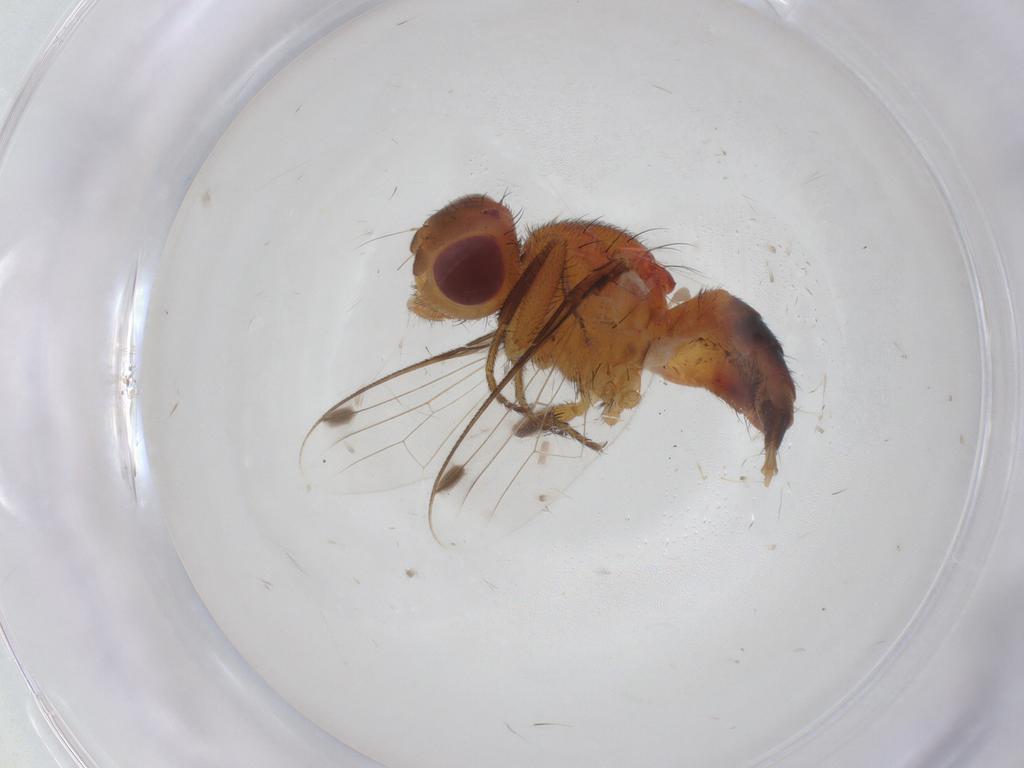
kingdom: Animalia
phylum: Arthropoda
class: Insecta
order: Diptera
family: Richardiidae
